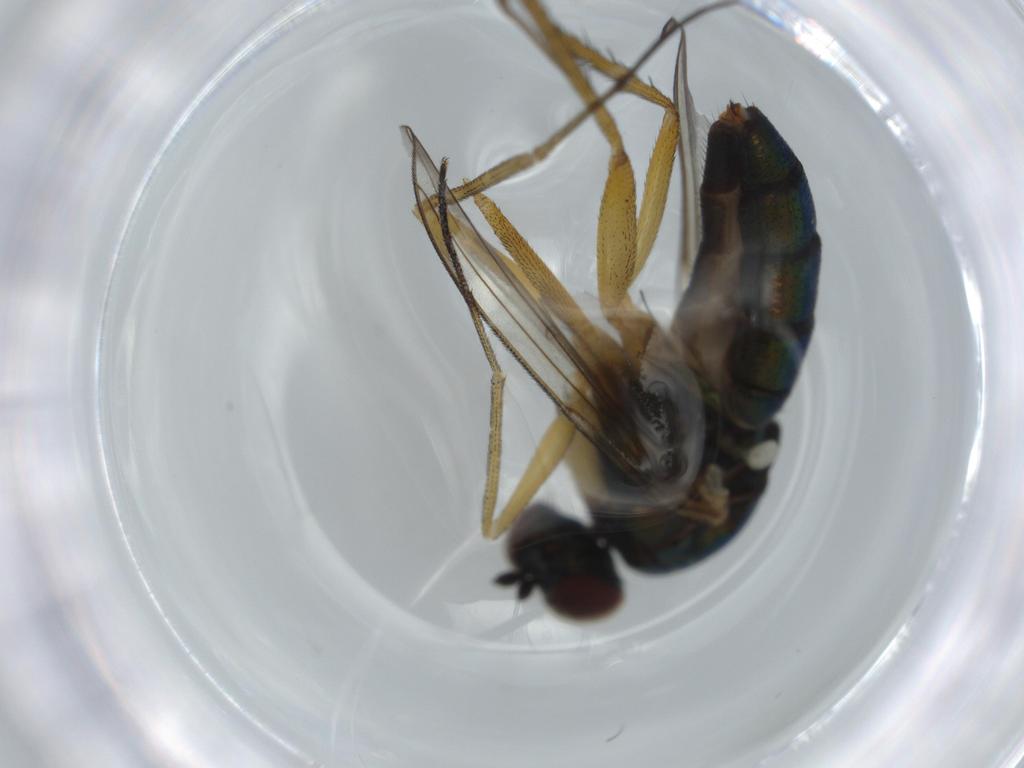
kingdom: Animalia
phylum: Arthropoda
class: Insecta
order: Diptera
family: Dolichopodidae
